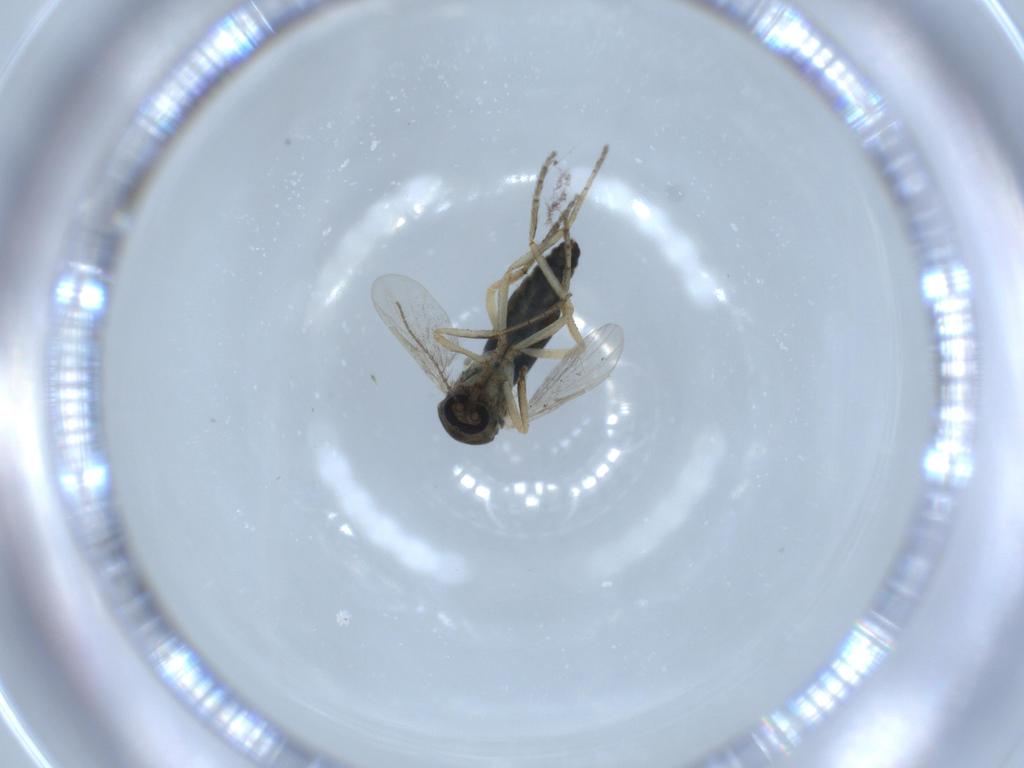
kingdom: Animalia
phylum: Arthropoda
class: Insecta
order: Diptera
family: Ceratopogonidae
